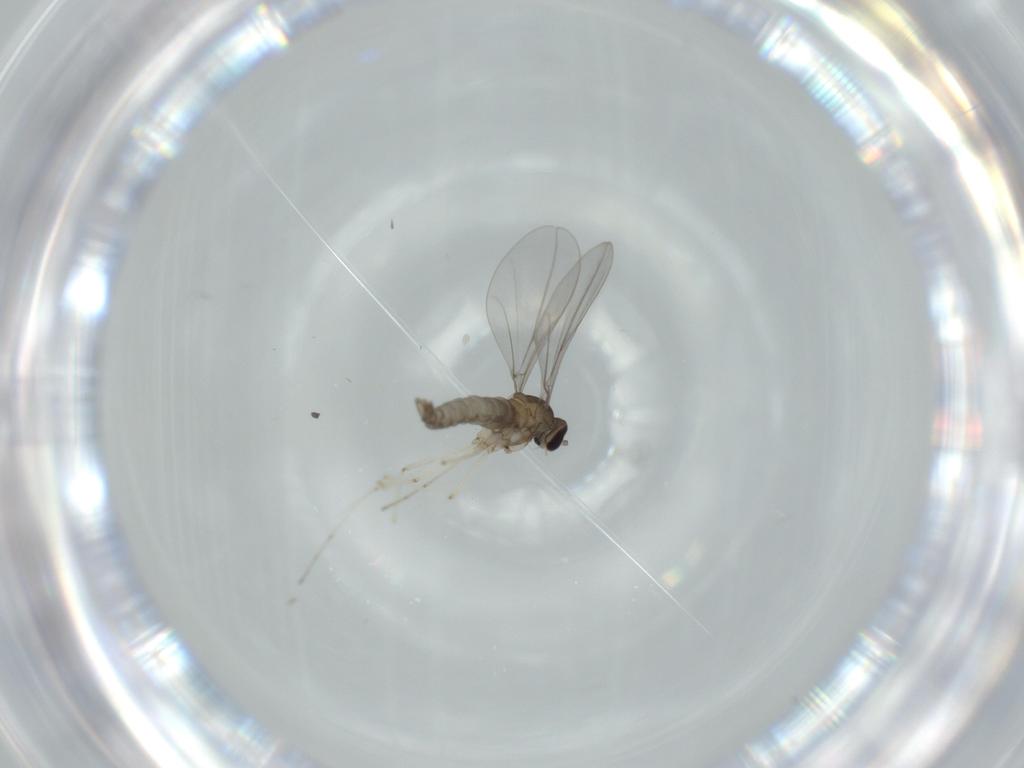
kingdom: Animalia
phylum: Arthropoda
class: Insecta
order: Diptera
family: Cecidomyiidae
